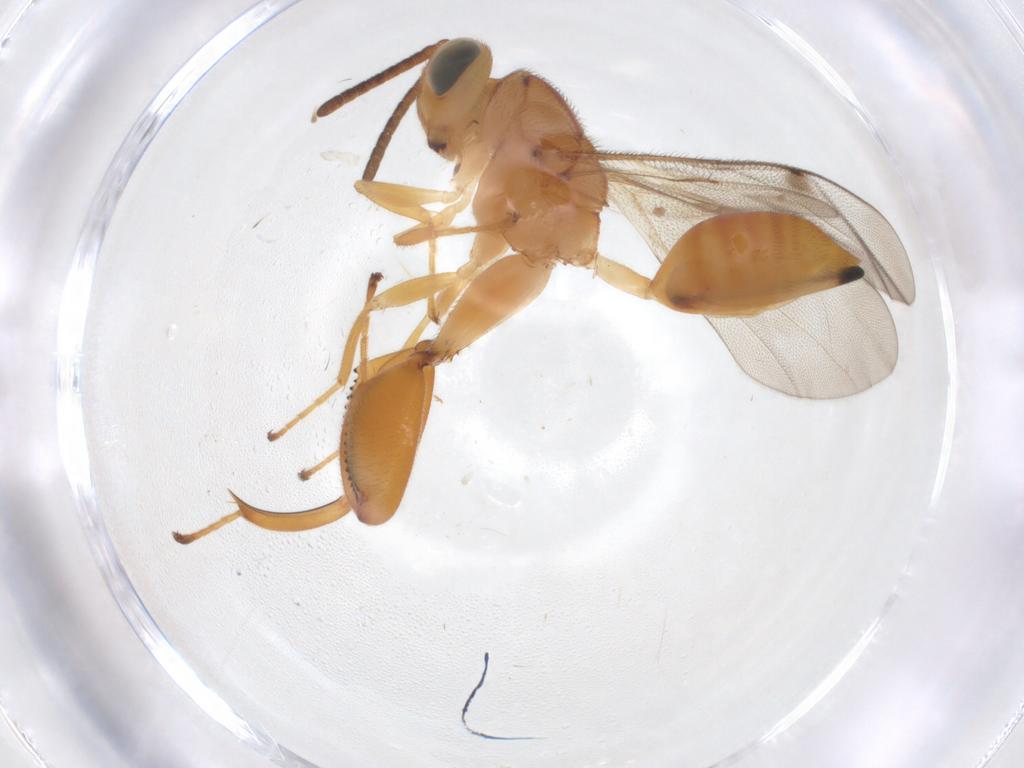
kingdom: Animalia
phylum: Arthropoda
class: Insecta
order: Hymenoptera
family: Chalcididae
